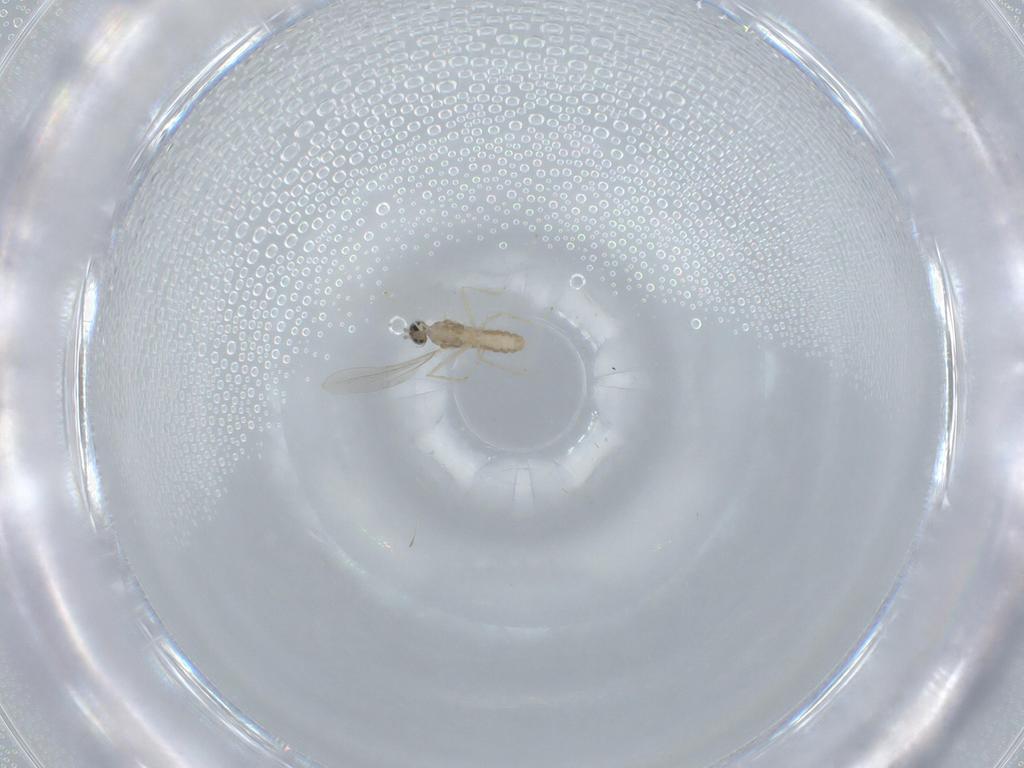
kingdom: Animalia
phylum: Arthropoda
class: Insecta
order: Diptera
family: Cecidomyiidae
